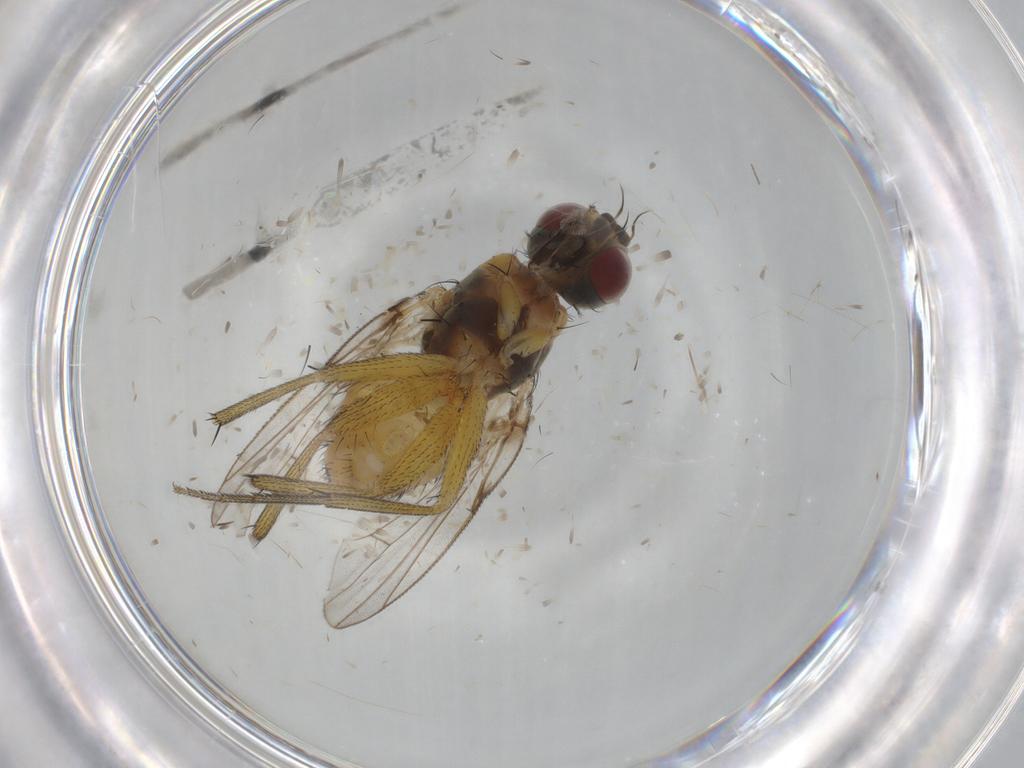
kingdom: Animalia
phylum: Arthropoda
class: Insecta
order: Diptera
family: Muscidae
